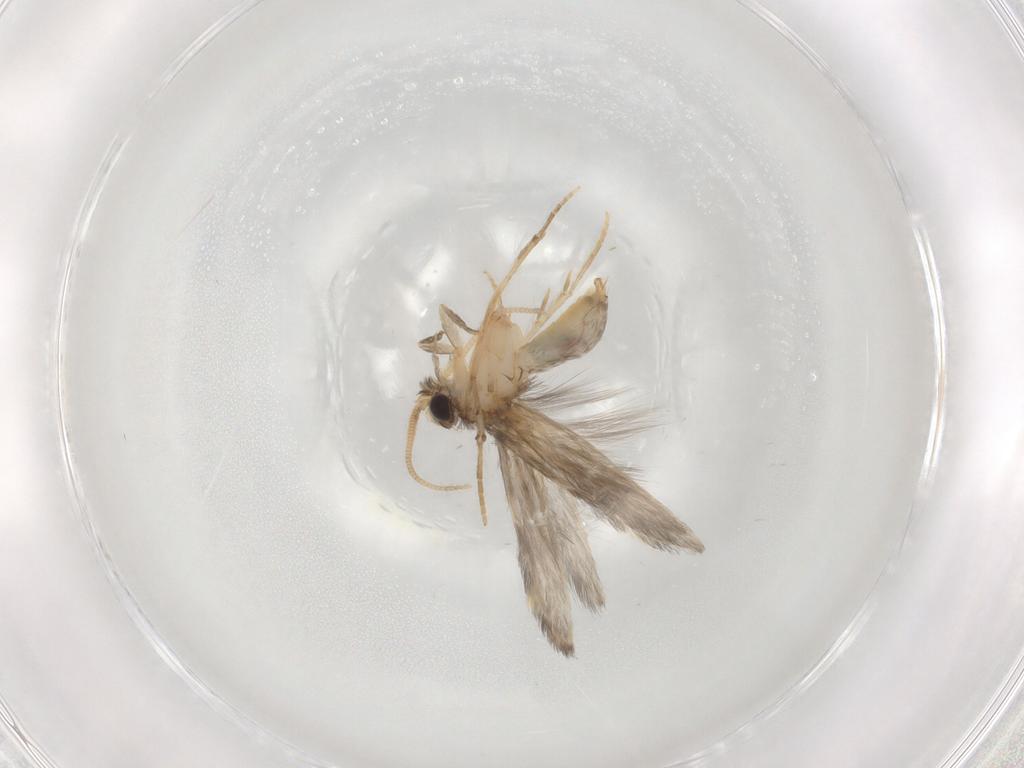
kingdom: Animalia
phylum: Arthropoda
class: Insecta
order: Trichoptera
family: Hydroptilidae
